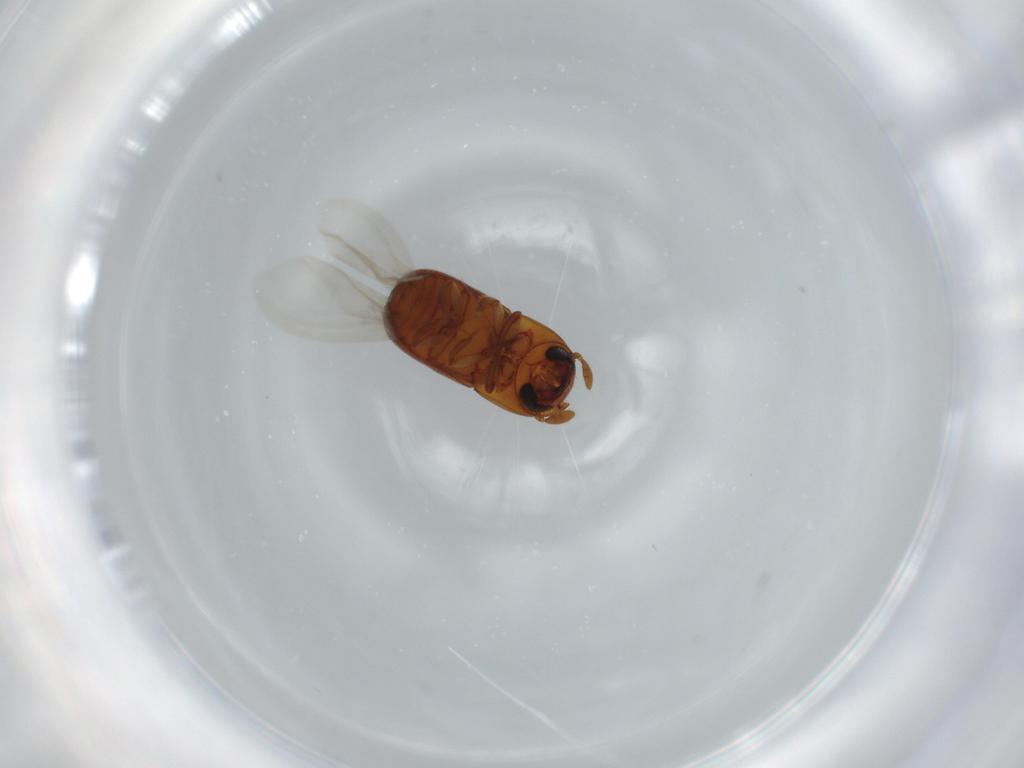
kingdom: Animalia
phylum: Arthropoda
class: Insecta
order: Coleoptera
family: Curculionidae
